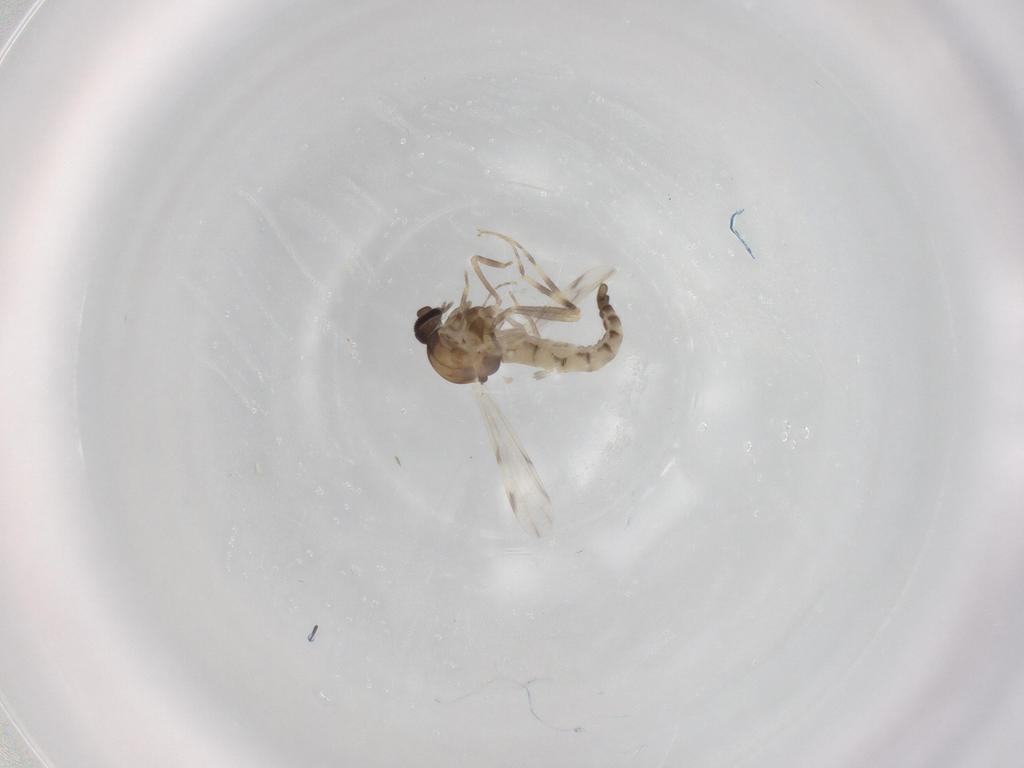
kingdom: Animalia
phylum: Arthropoda
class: Insecta
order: Diptera
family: Ceratopogonidae
